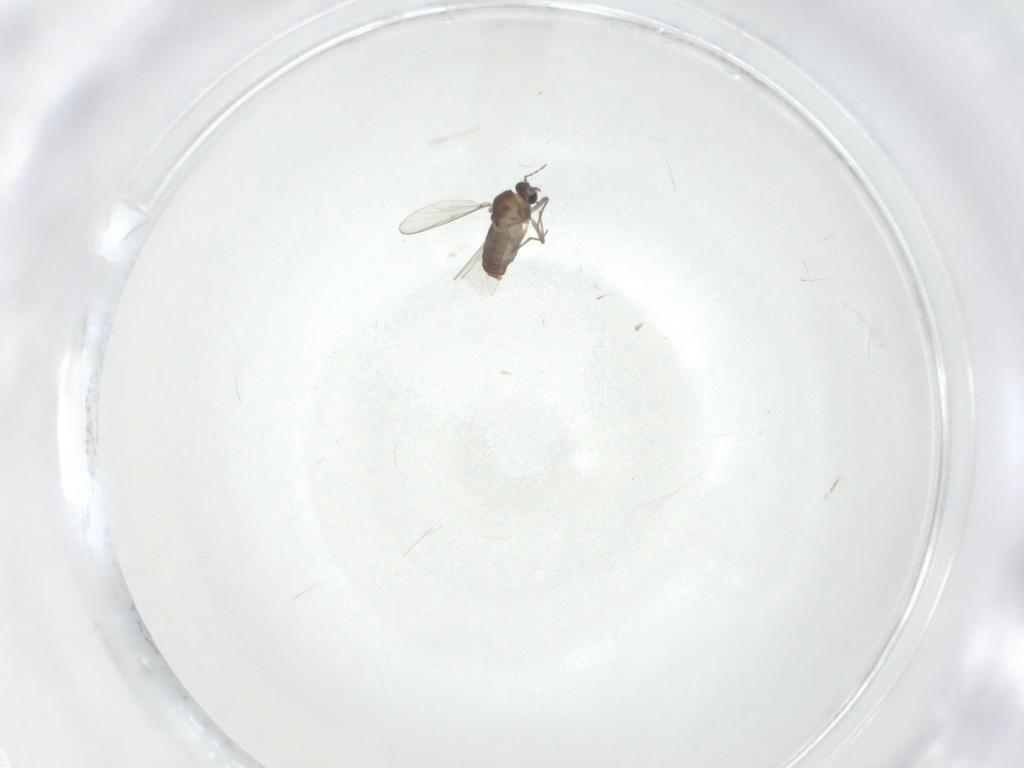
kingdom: Animalia
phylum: Arthropoda
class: Insecta
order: Diptera
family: Chironomidae
